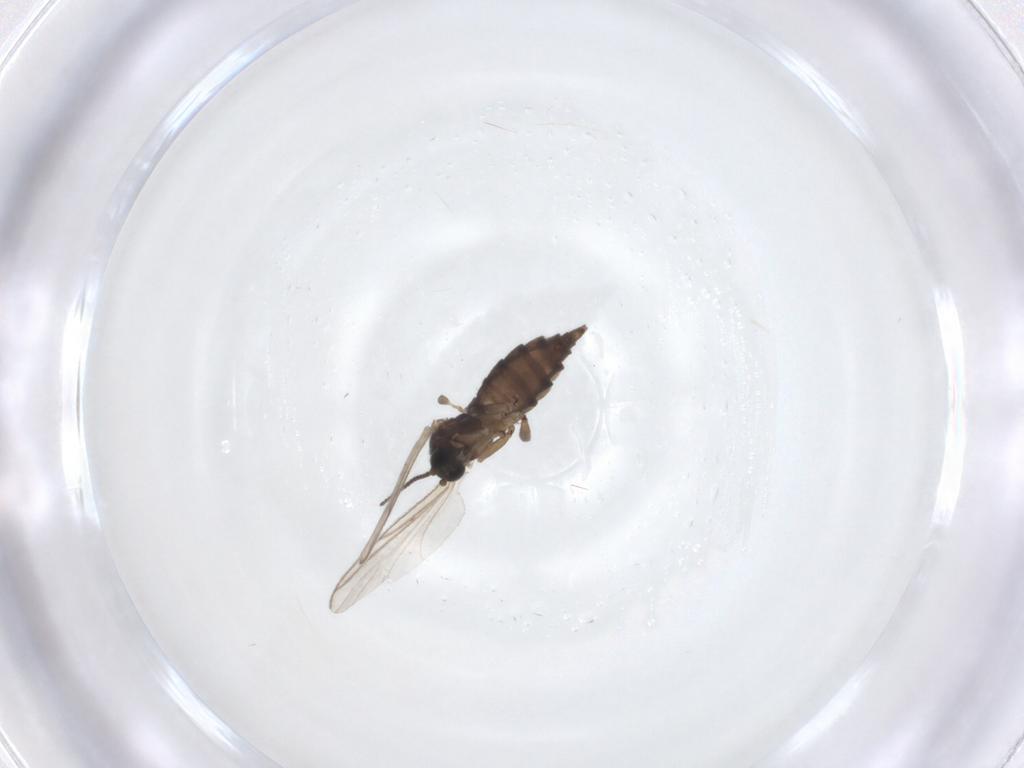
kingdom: Animalia
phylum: Arthropoda
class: Insecta
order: Diptera
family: Sciaridae
